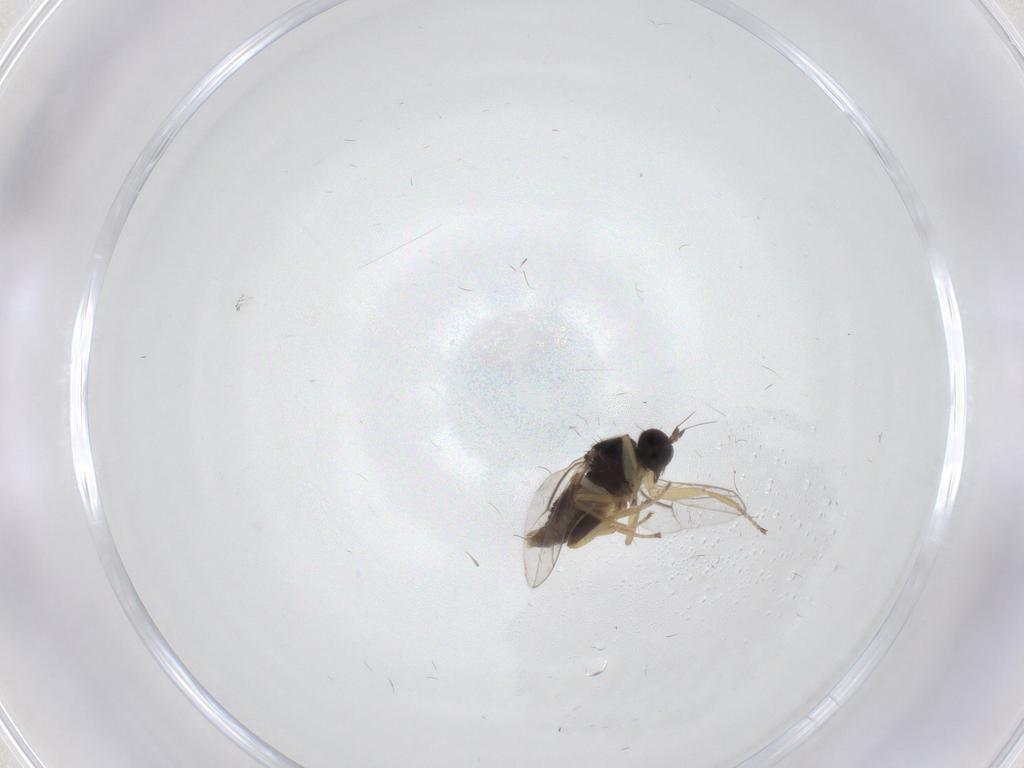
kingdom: Animalia
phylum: Arthropoda
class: Insecta
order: Diptera
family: Hybotidae
